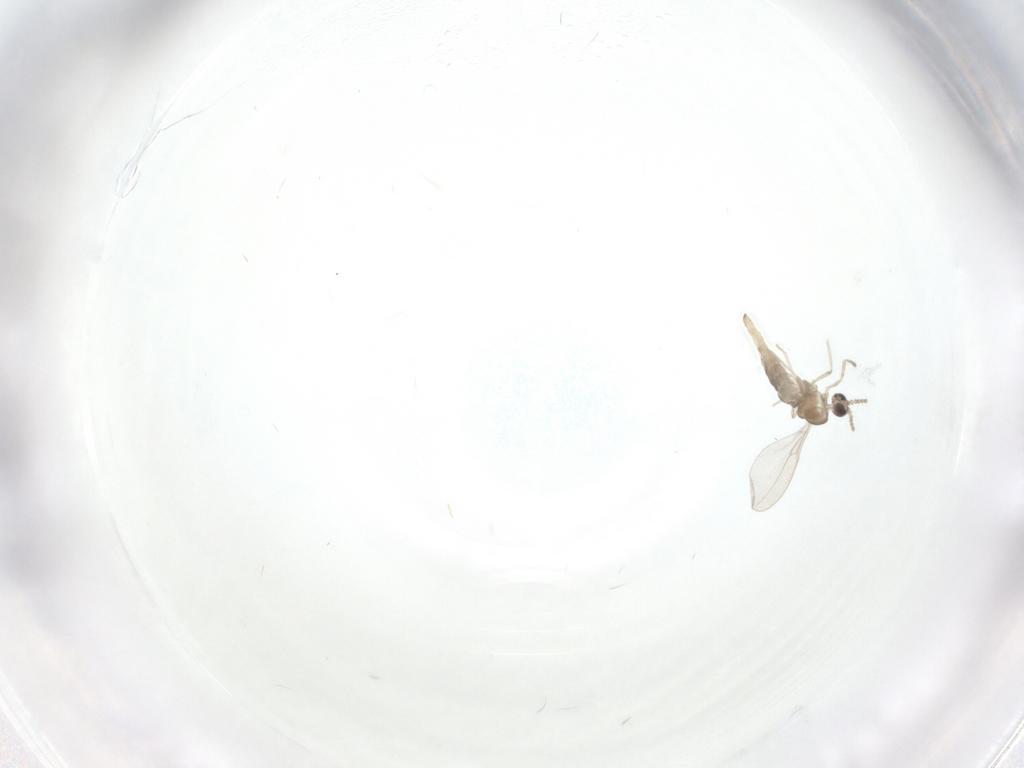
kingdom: Animalia
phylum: Arthropoda
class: Insecta
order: Diptera
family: Cecidomyiidae
